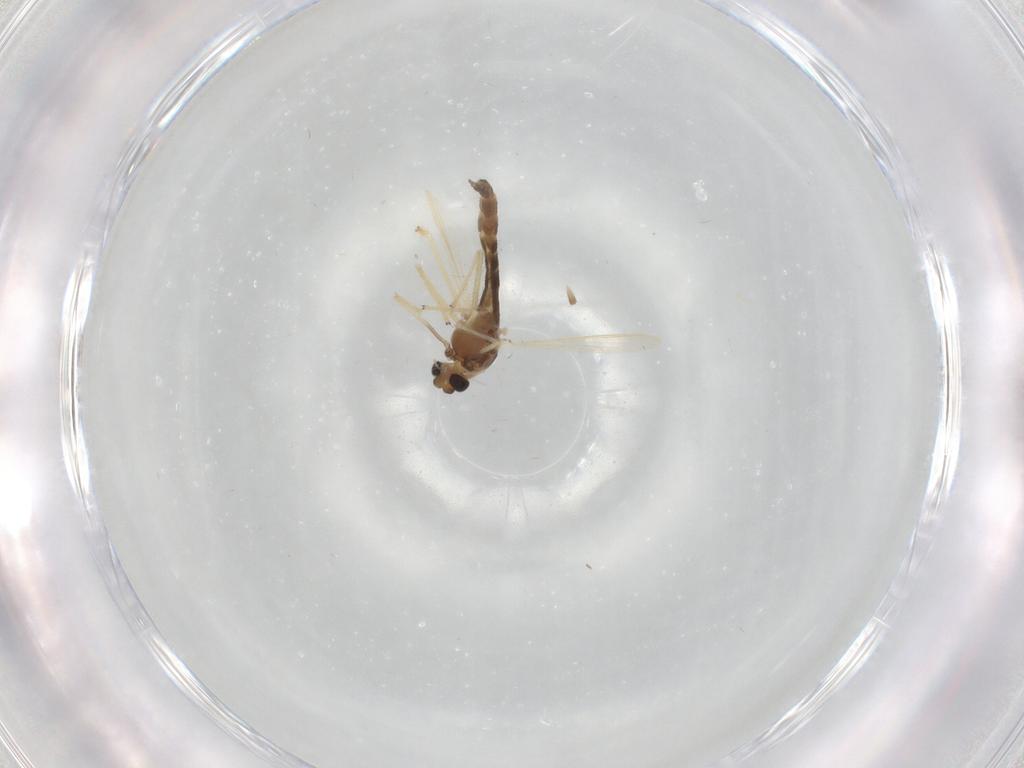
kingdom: Animalia
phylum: Arthropoda
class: Insecta
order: Diptera
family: Chironomidae
